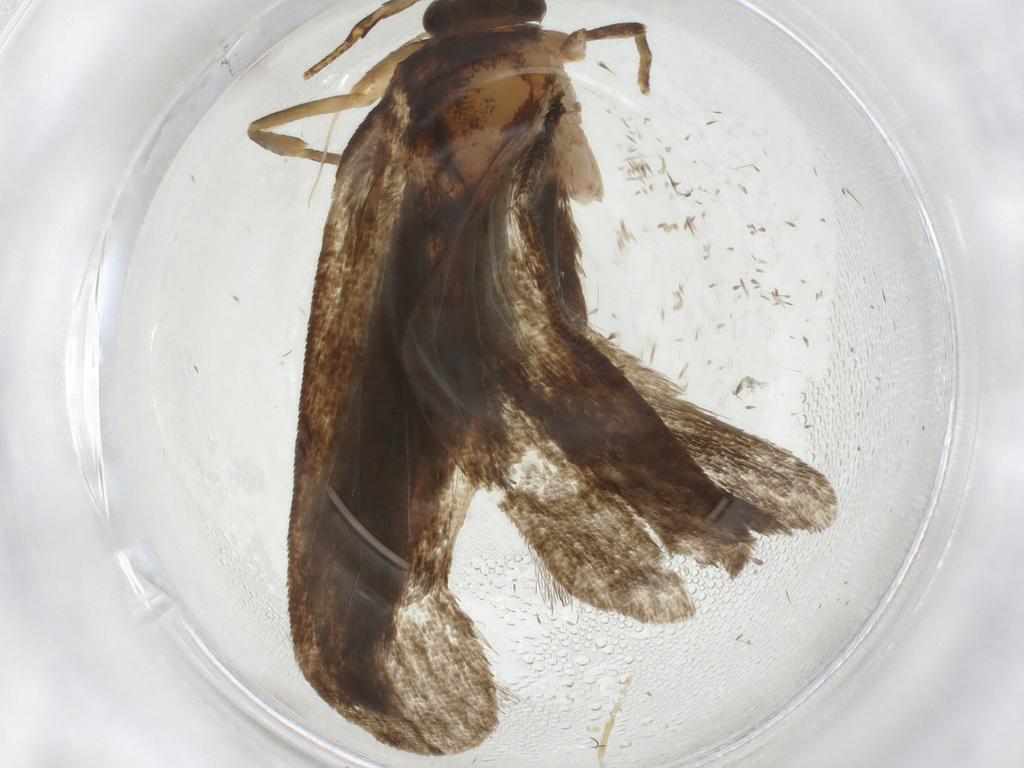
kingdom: Animalia
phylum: Arthropoda
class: Insecta
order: Lepidoptera
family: Autostichidae
